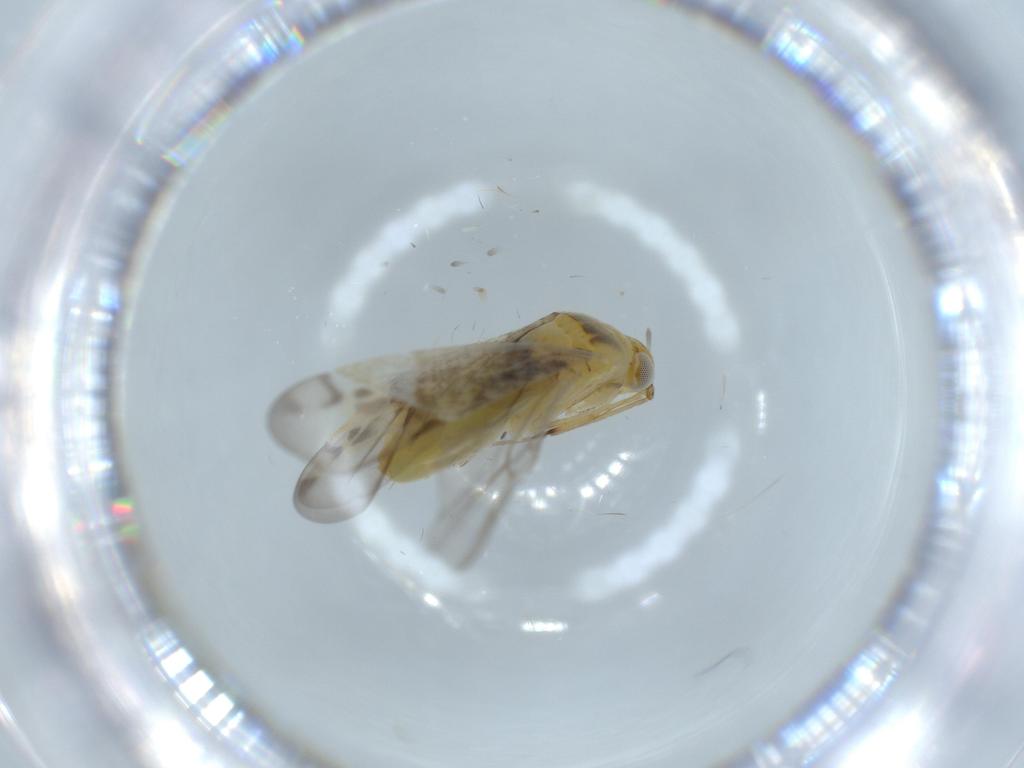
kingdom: Animalia
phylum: Arthropoda
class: Insecta
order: Hemiptera
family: Miridae
